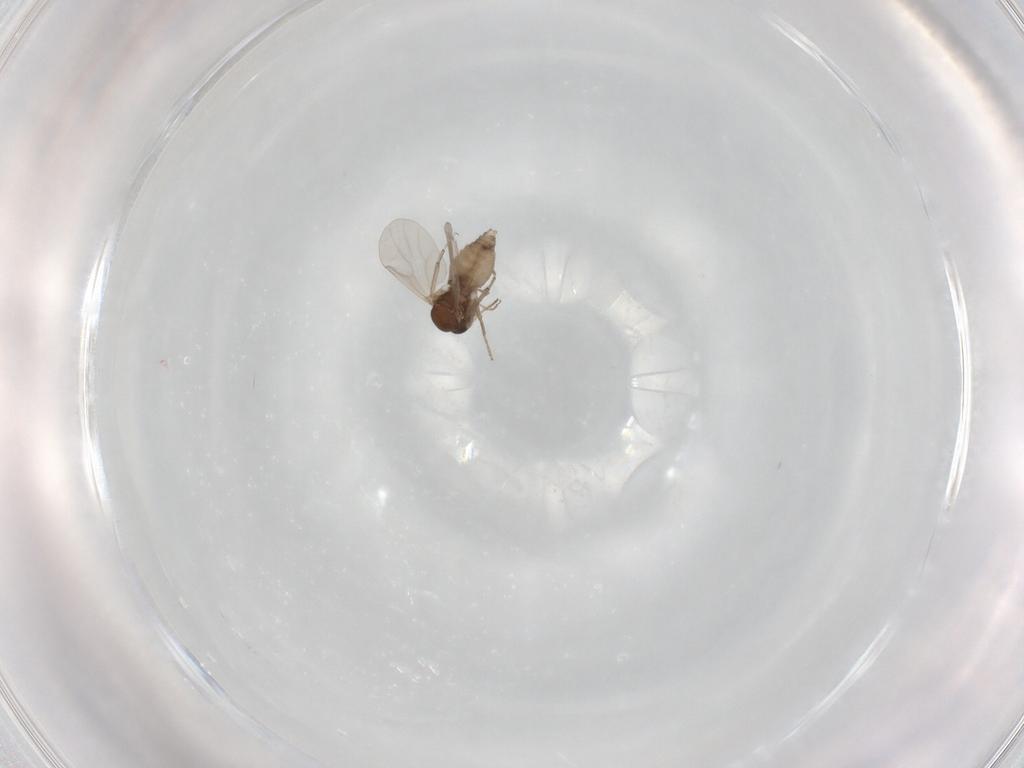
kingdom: Animalia
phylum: Arthropoda
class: Insecta
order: Diptera
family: Ceratopogonidae
